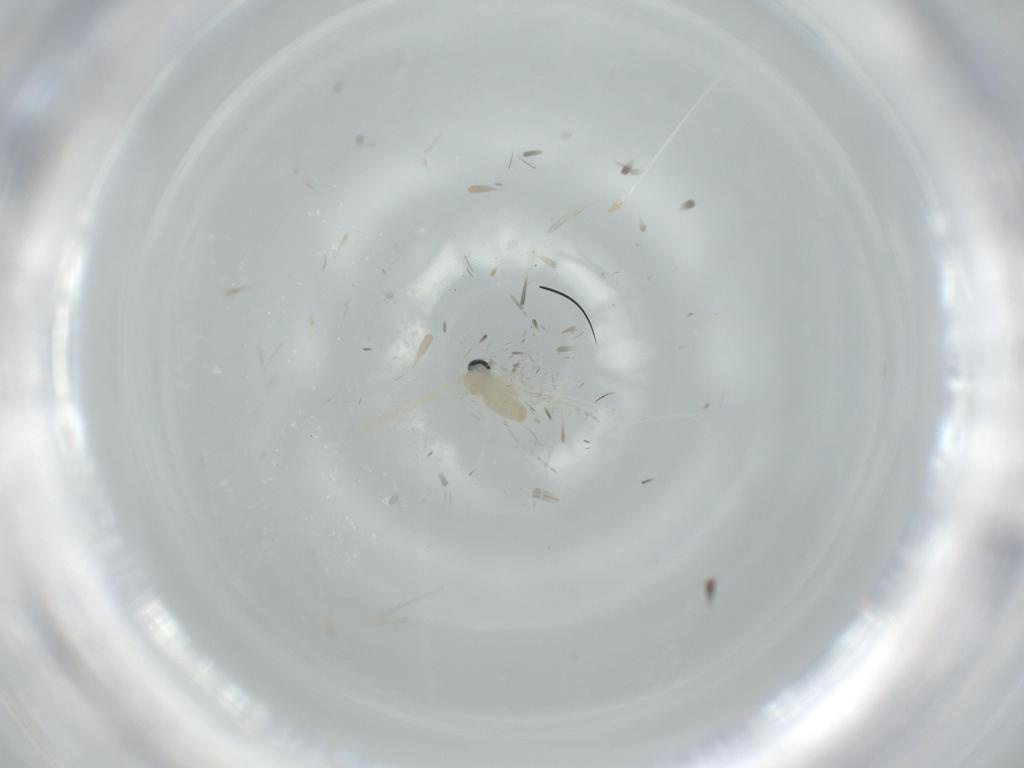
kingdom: Animalia
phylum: Arthropoda
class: Insecta
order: Diptera
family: Cecidomyiidae
